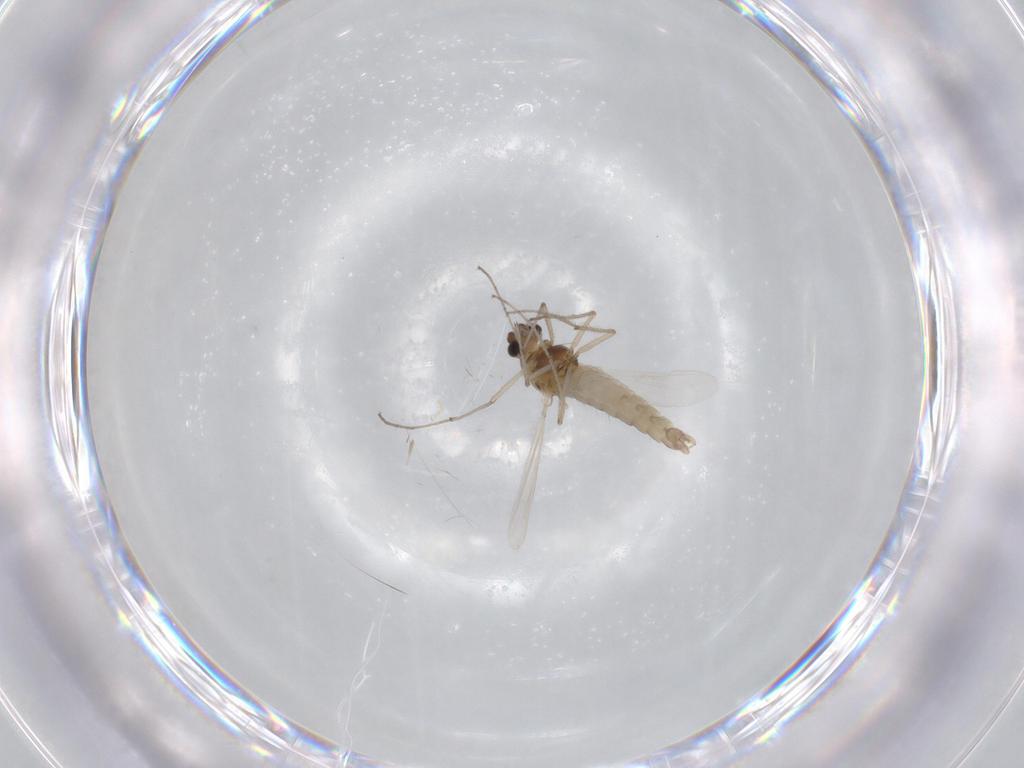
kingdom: Animalia
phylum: Arthropoda
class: Insecta
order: Diptera
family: Chironomidae
